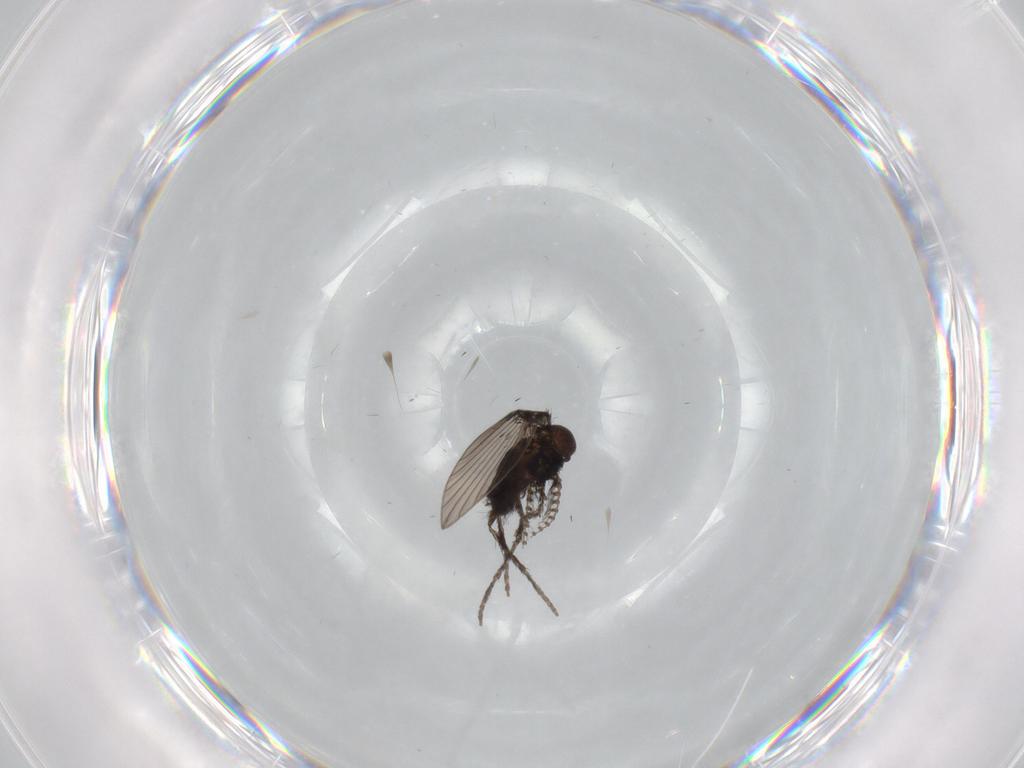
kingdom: Animalia
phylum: Arthropoda
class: Insecta
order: Diptera
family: Psychodidae
